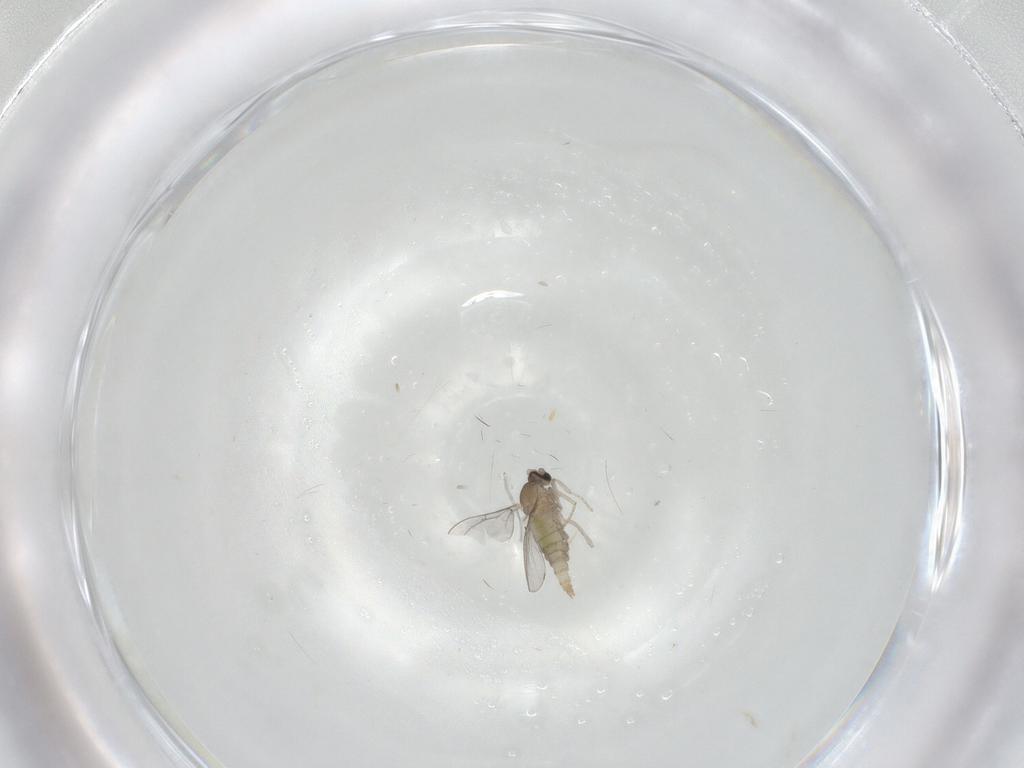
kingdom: Animalia
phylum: Arthropoda
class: Insecta
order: Diptera
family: Cecidomyiidae
